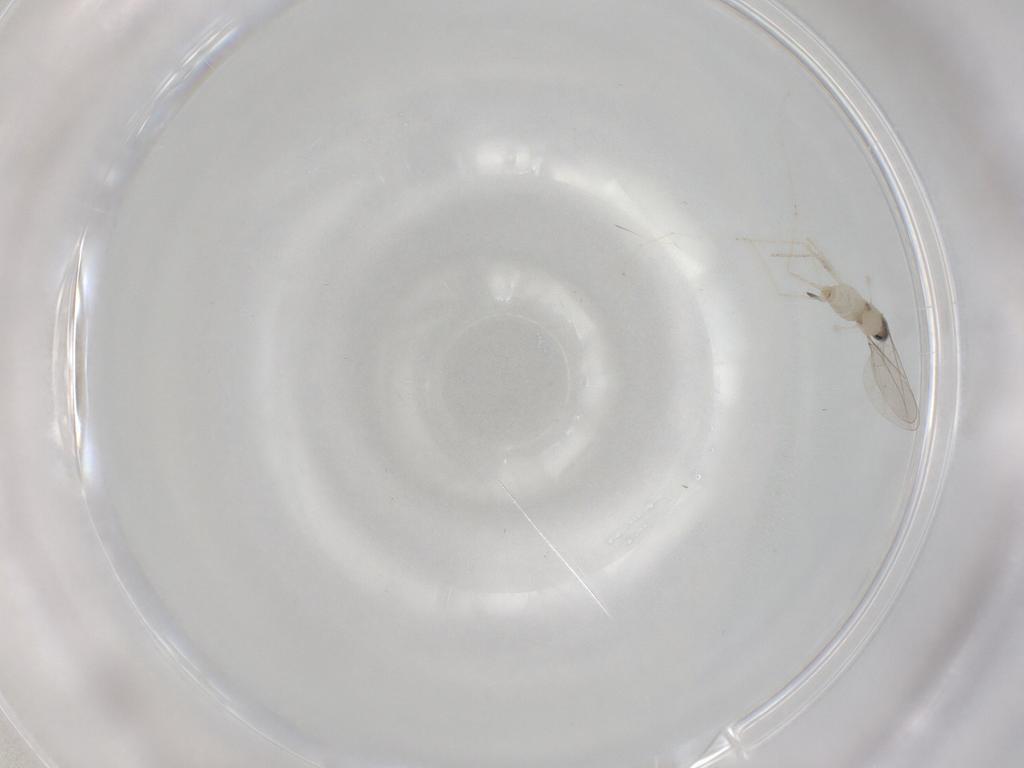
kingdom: Animalia
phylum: Arthropoda
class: Insecta
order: Diptera
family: Cecidomyiidae
